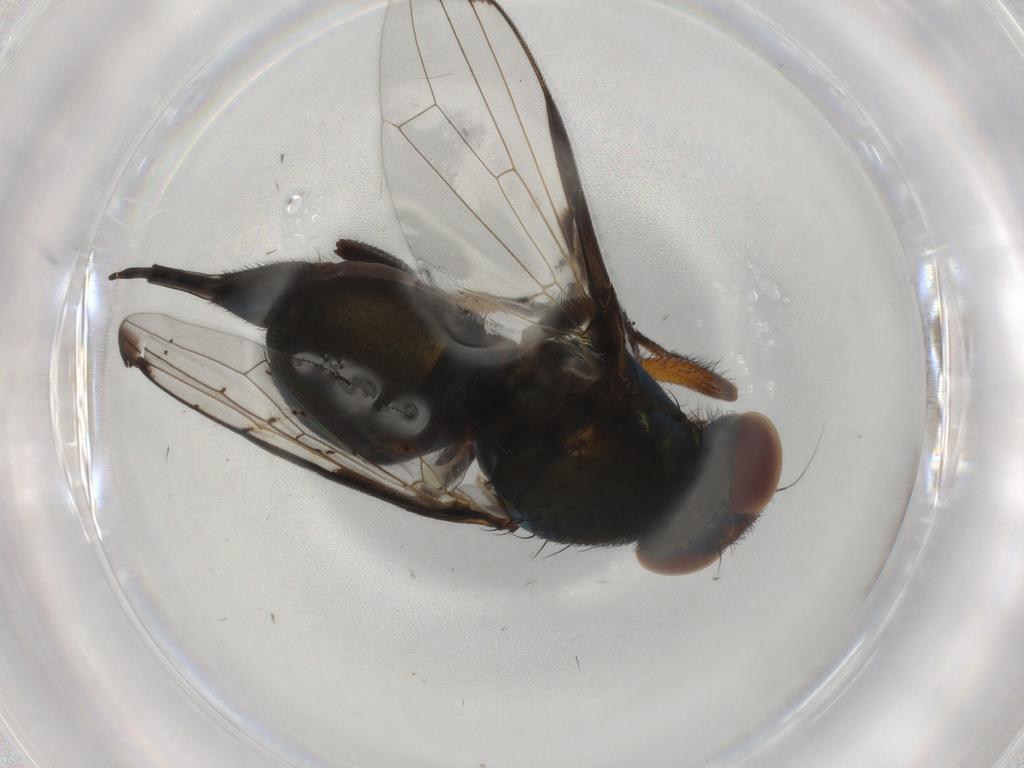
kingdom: Animalia
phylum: Arthropoda
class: Insecta
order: Diptera
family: Ulidiidae
